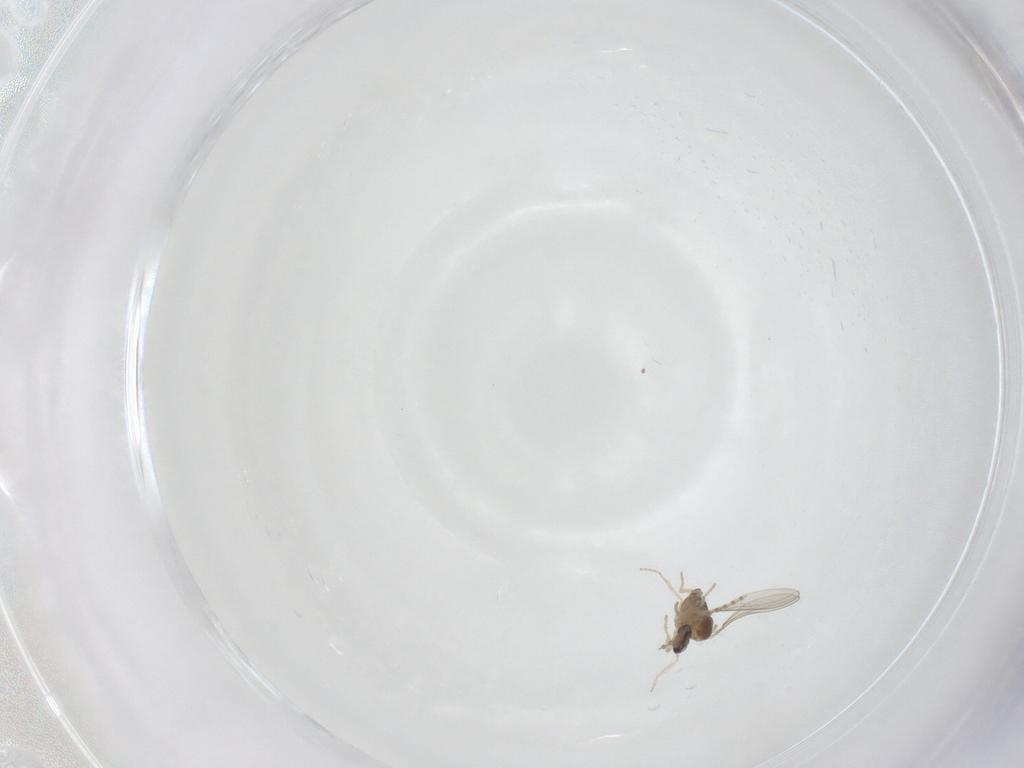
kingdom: Animalia
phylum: Arthropoda
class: Insecta
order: Diptera
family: Cecidomyiidae
